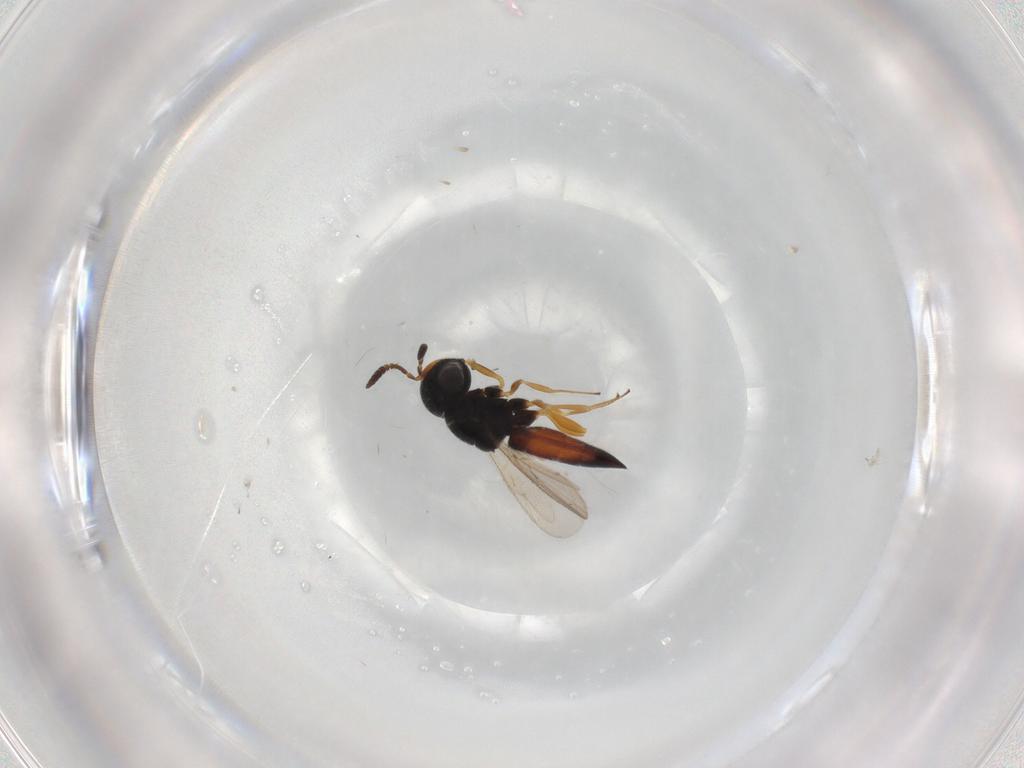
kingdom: Animalia
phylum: Arthropoda
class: Insecta
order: Hymenoptera
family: Scelionidae
